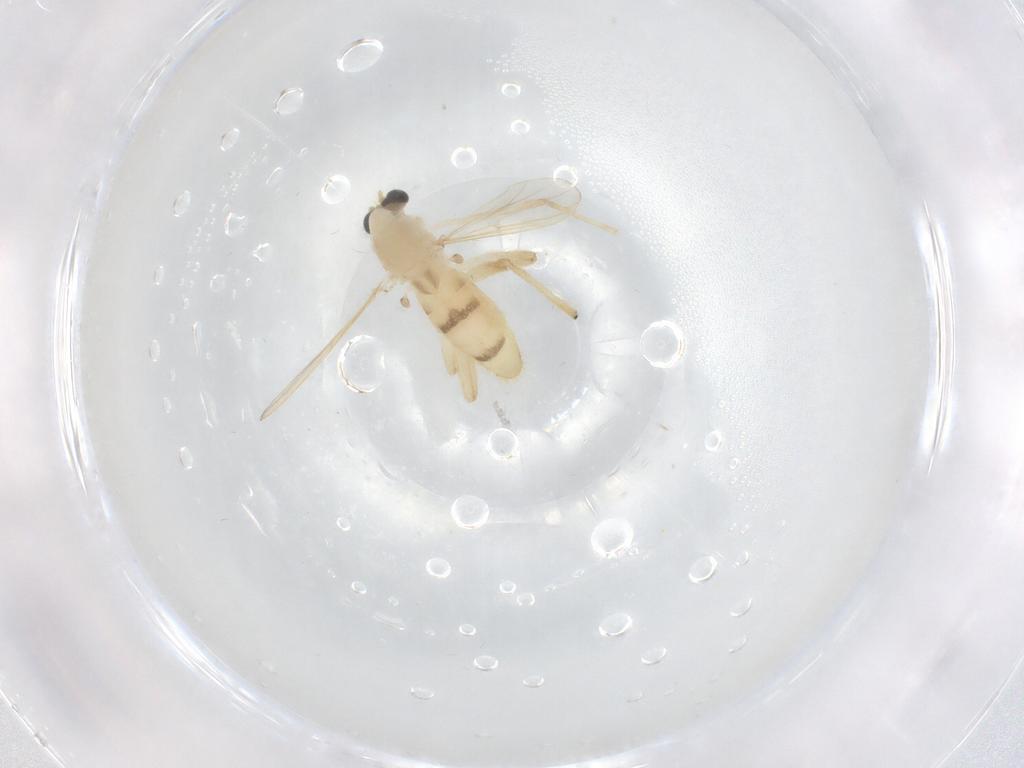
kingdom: Animalia
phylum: Arthropoda
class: Insecta
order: Diptera
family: Chironomidae
